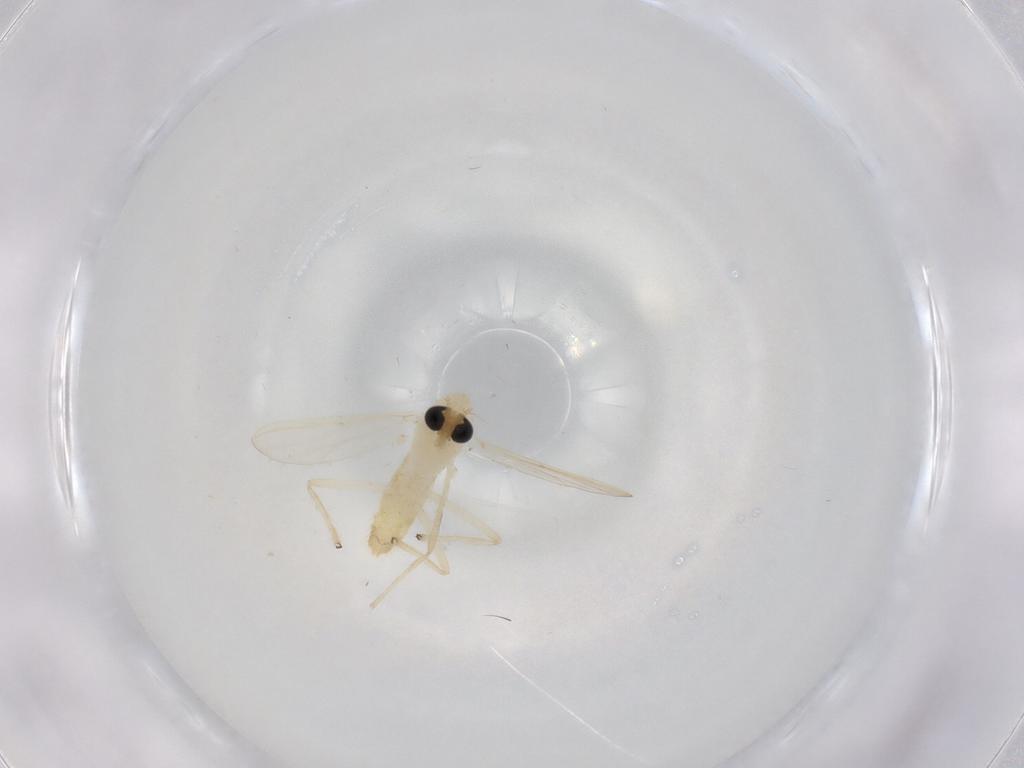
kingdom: Animalia
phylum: Arthropoda
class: Insecta
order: Diptera
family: Chironomidae
